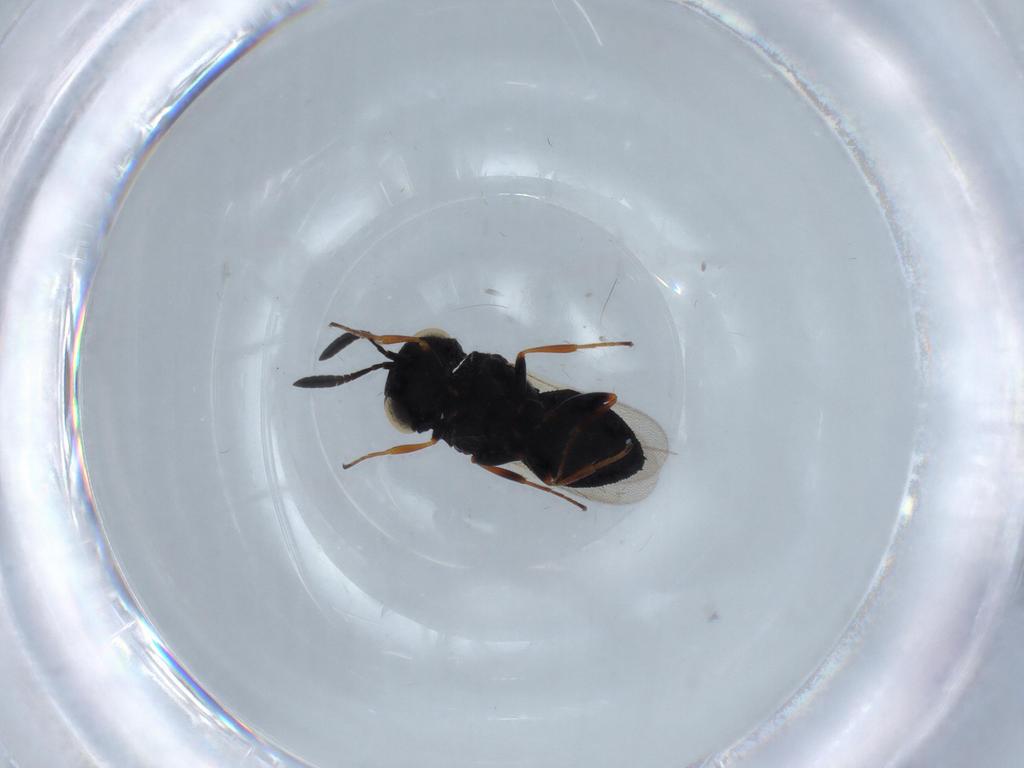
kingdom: Animalia
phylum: Arthropoda
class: Insecta
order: Hymenoptera
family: Scelionidae
